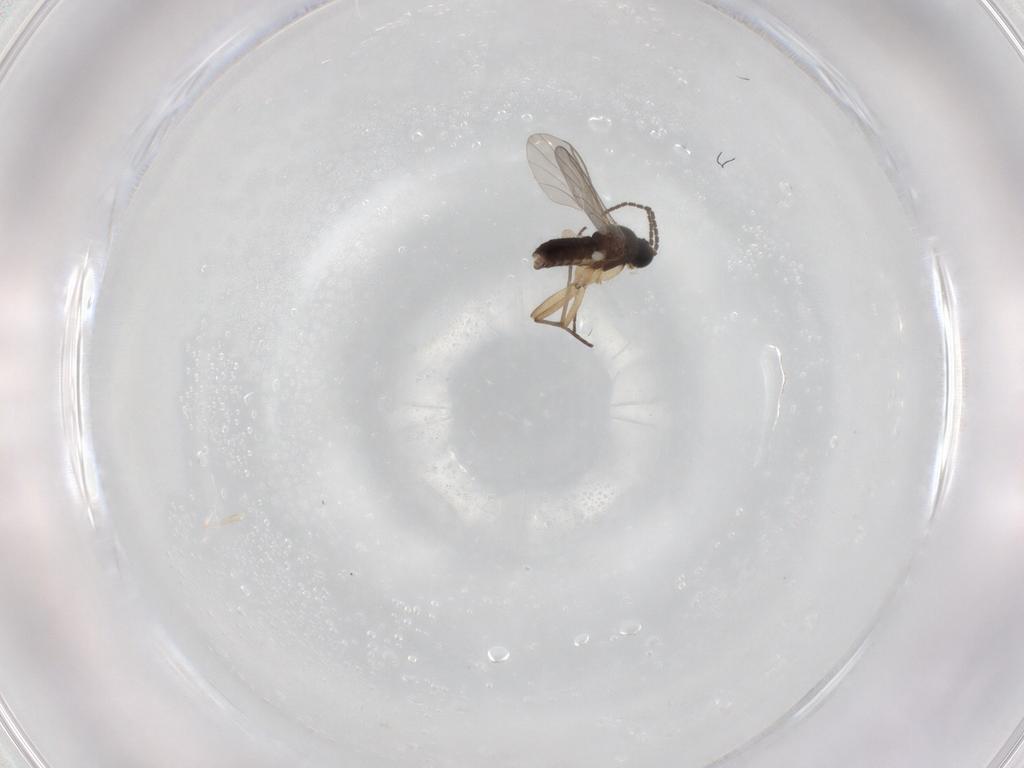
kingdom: Animalia
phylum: Arthropoda
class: Insecta
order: Diptera
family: Sciaridae
